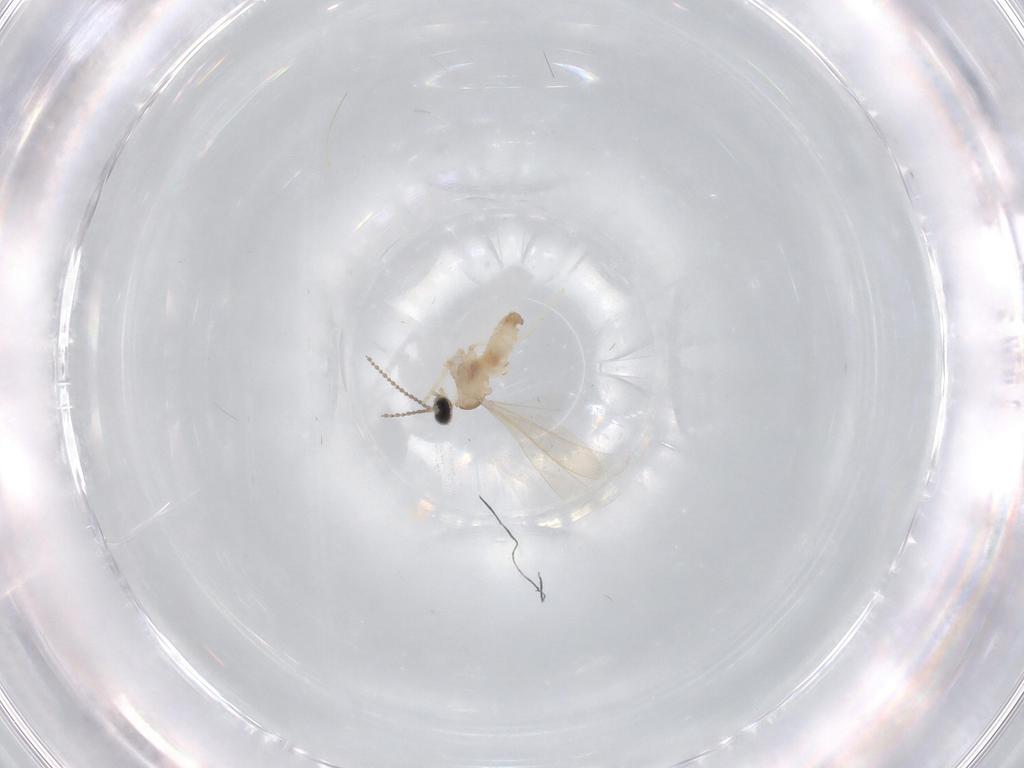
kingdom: Animalia
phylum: Arthropoda
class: Insecta
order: Diptera
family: Cecidomyiidae
